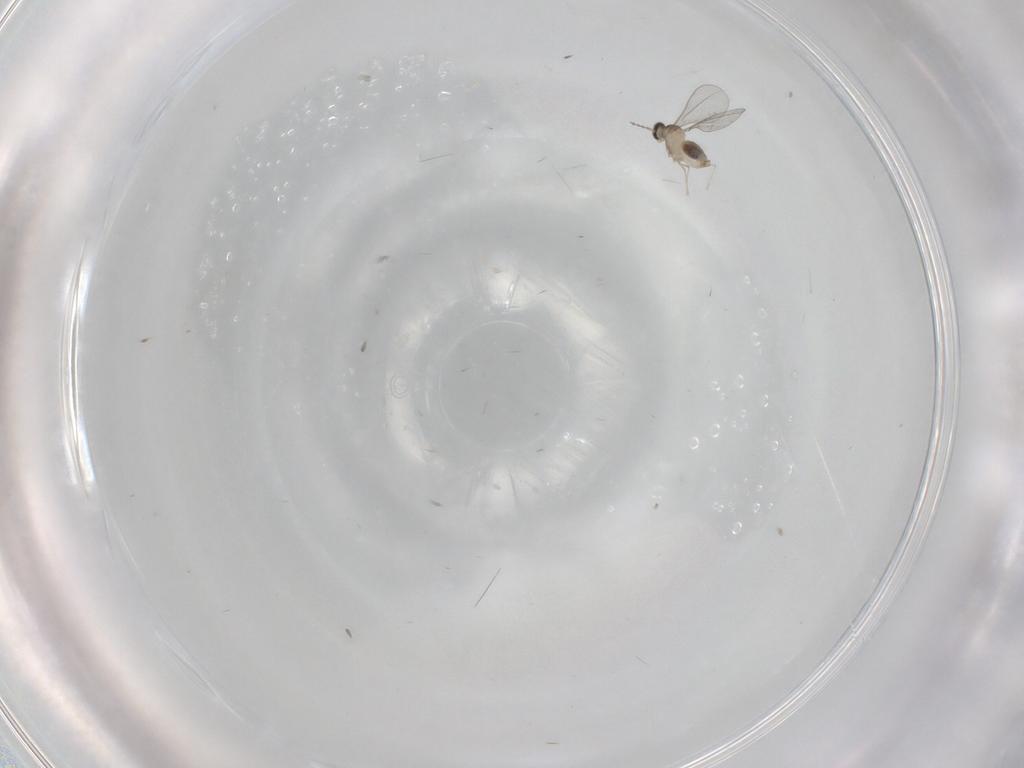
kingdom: Animalia
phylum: Arthropoda
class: Insecta
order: Diptera
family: Cecidomyiidae
